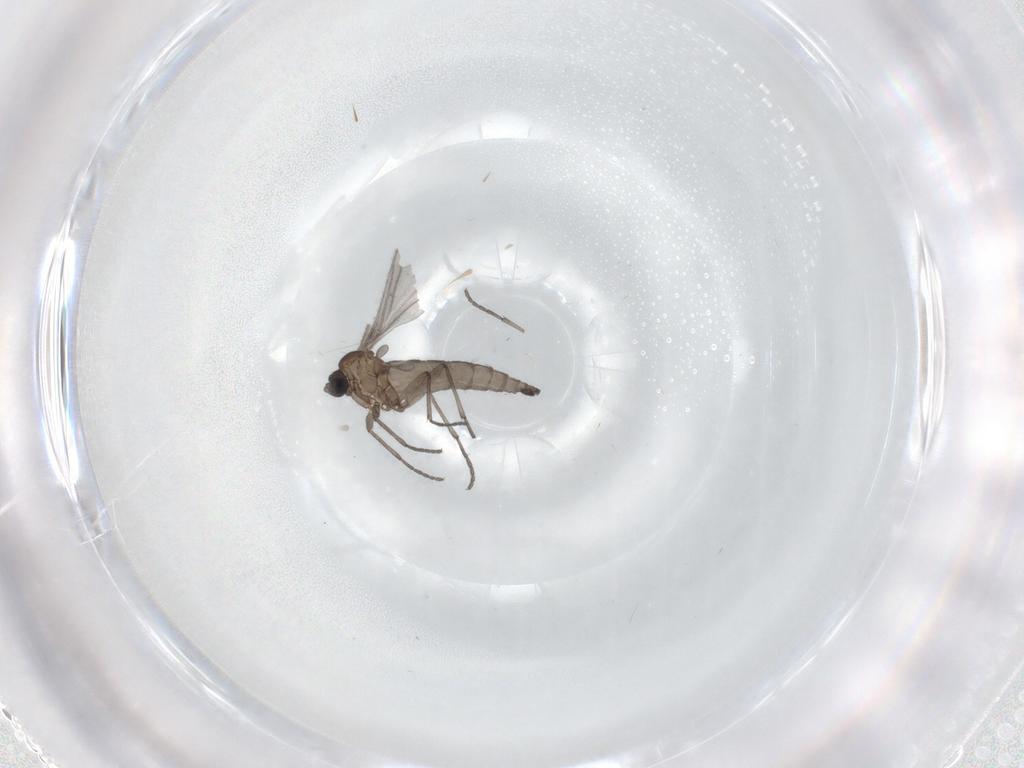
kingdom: Animalia
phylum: Arthropoda
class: Insecta
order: Diptera
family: Sciaridae
